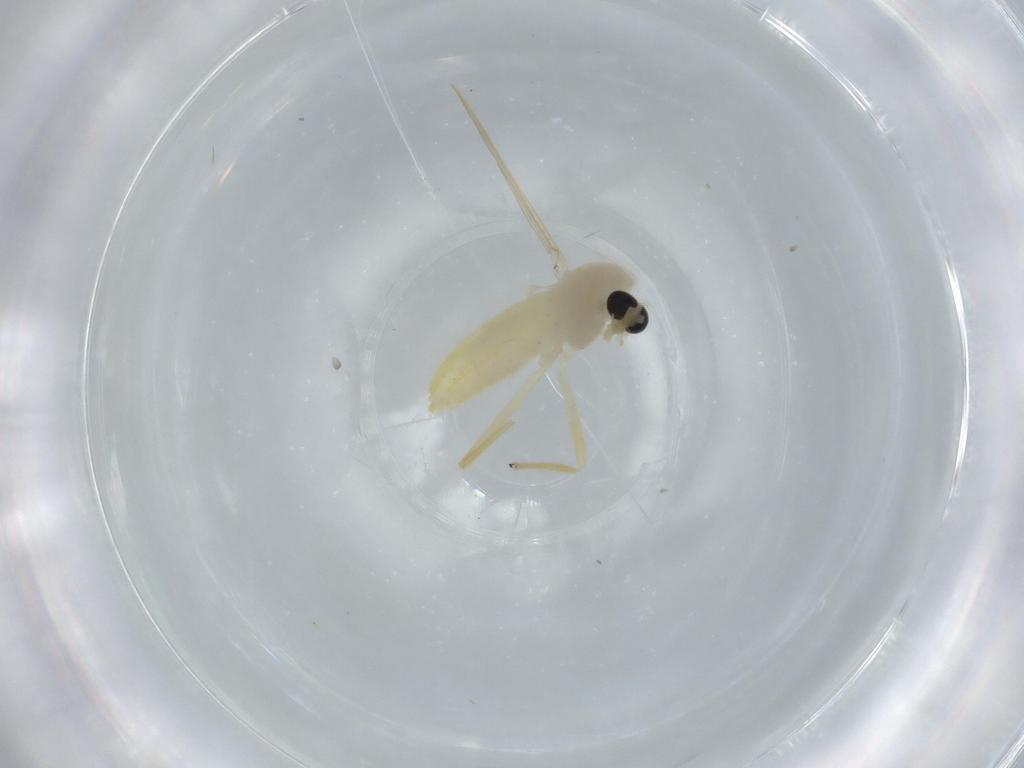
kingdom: Animalia
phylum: Arthropoda
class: Insecta
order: Diptera
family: Chironomidae
